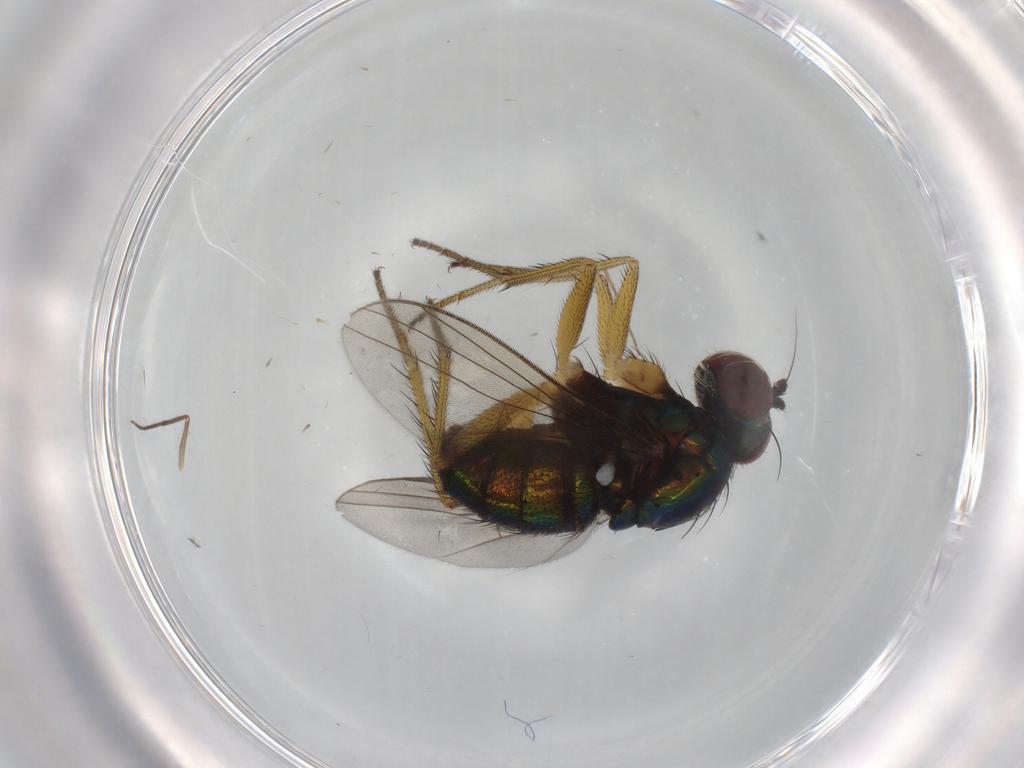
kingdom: Animalia
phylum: Arthropoda
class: Insecta
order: Diptera
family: Dolichopodidae
